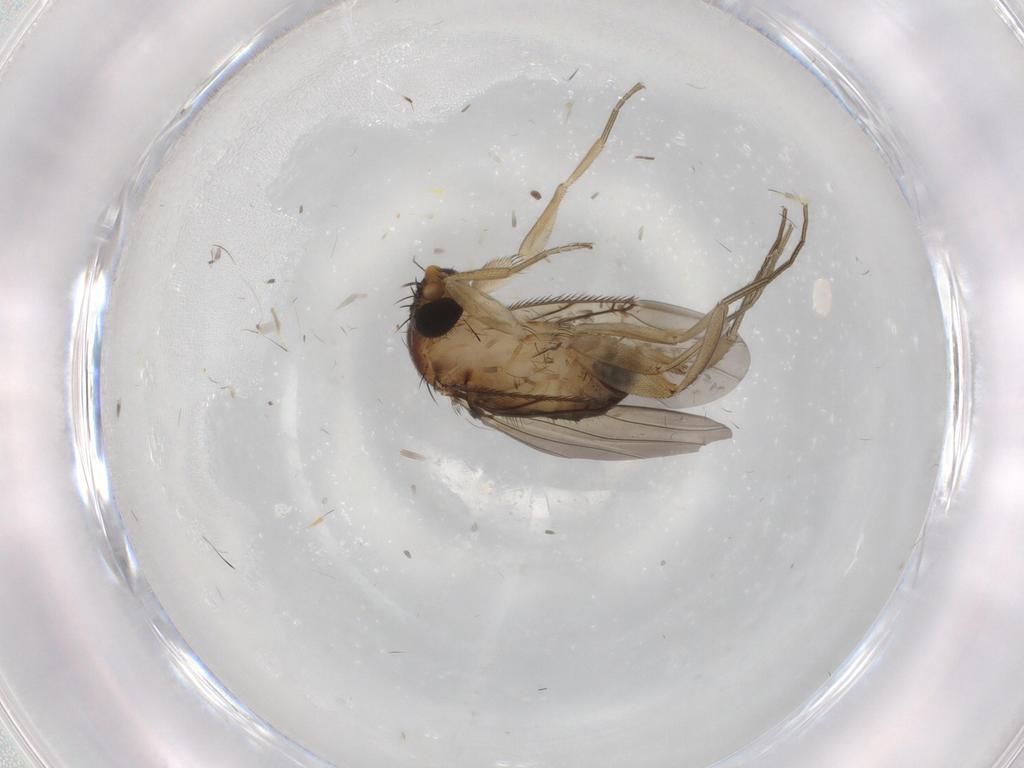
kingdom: Animalia
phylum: Arthropoda
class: Insecta
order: Diptera
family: Phoridae
